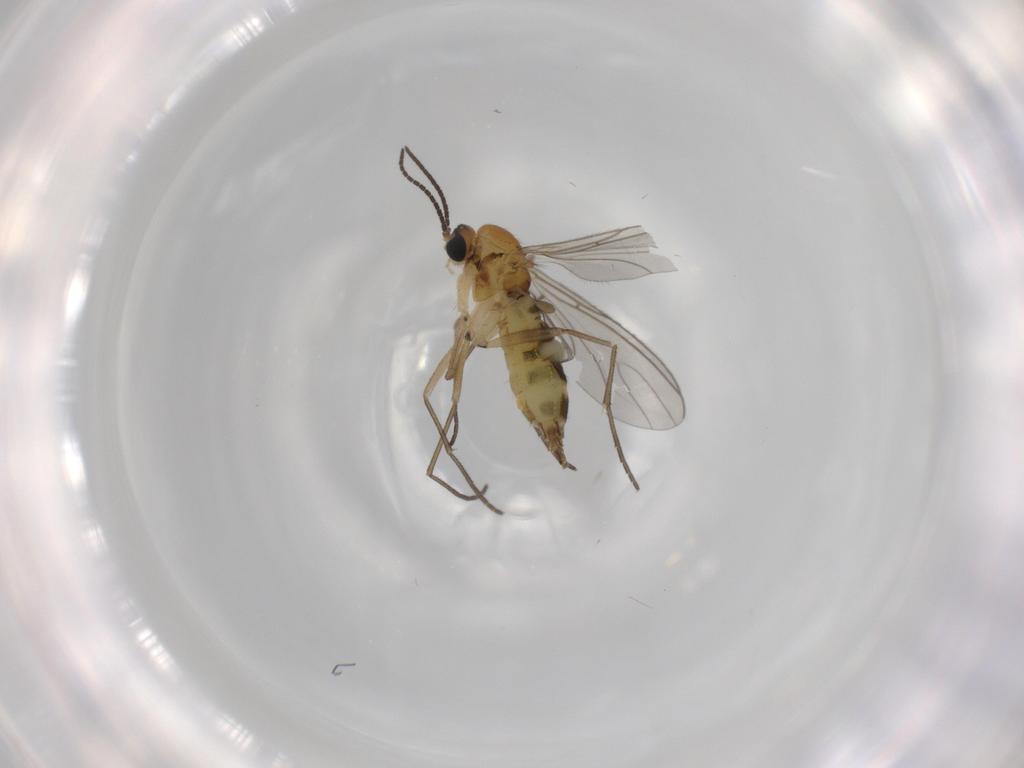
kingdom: Animalia
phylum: Arthropoda
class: Insecta
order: Diptera
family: Sciaridae
